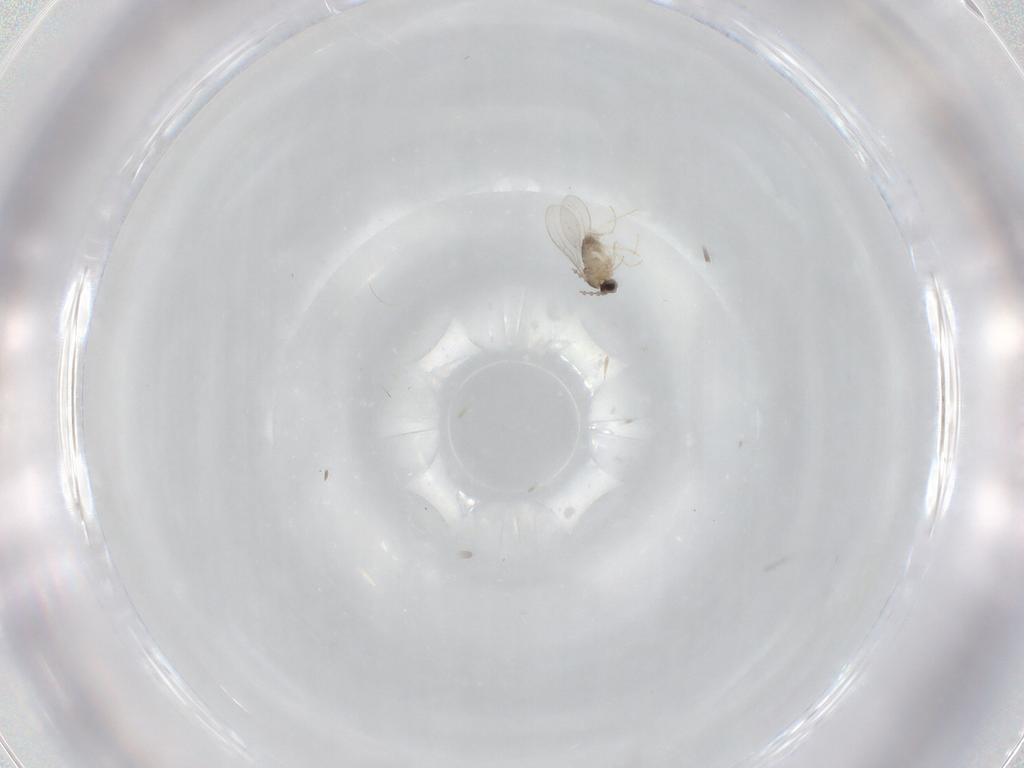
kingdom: Animalia
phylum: Arthropoda
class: Insecta
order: Diptera
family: Cecidomyiidae
